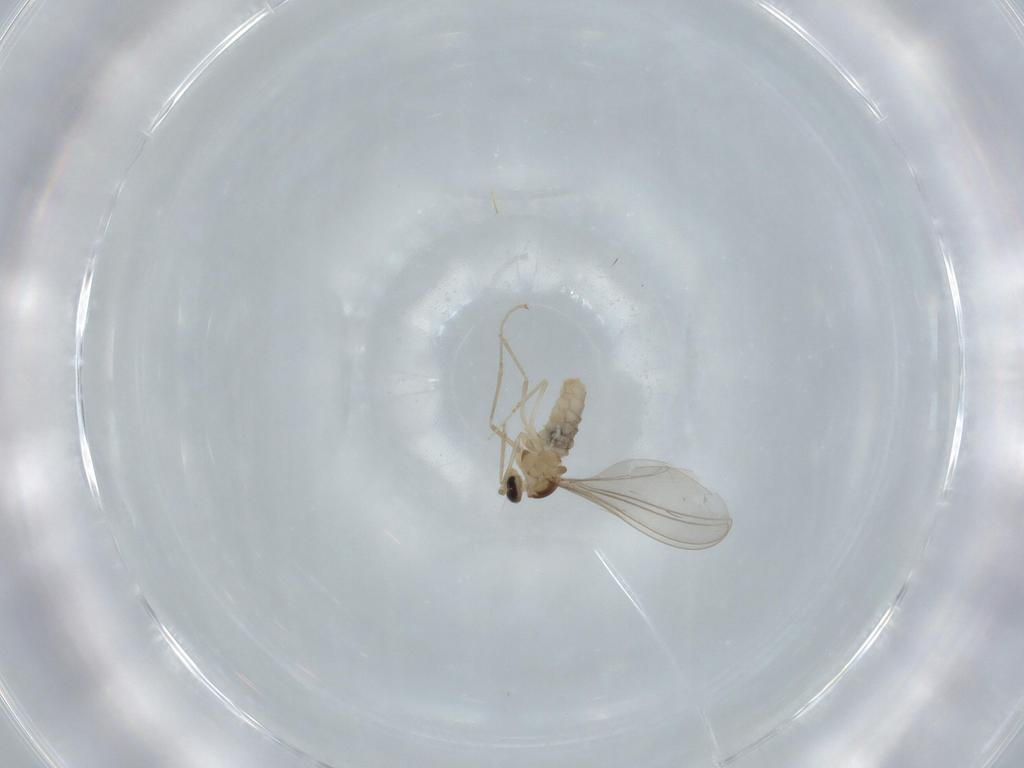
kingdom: Animalia
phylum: Arthropoda
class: Insecta
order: Diptera
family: Cecidomyiidae
